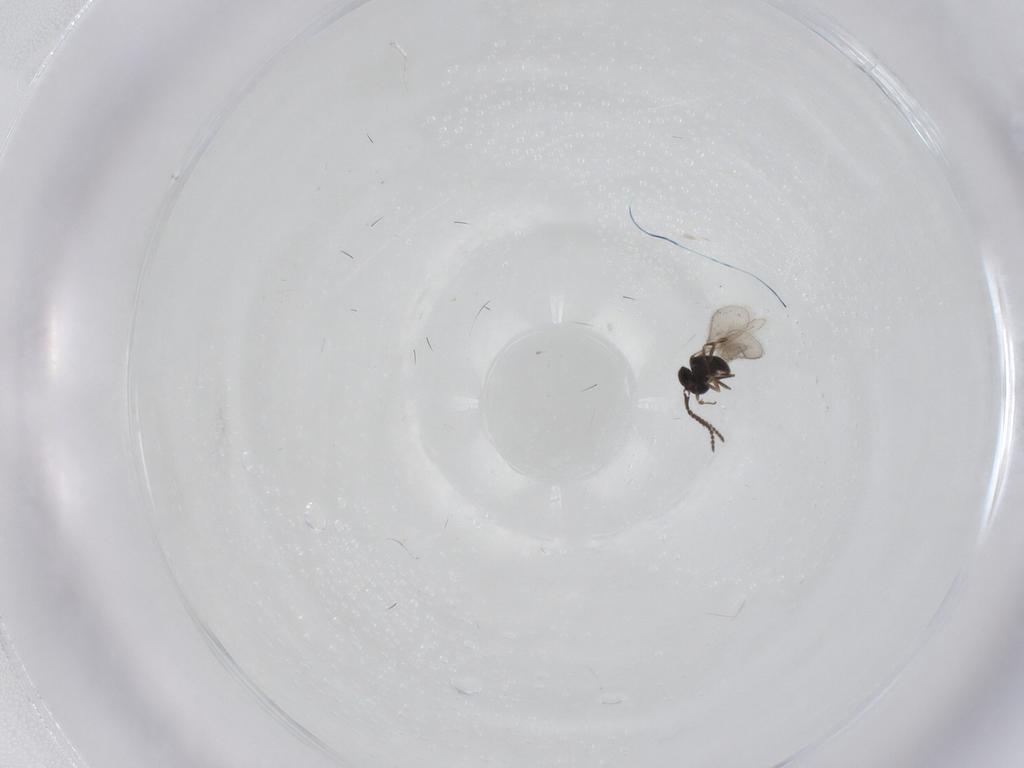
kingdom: Animalia
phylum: Arthropoda
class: Insecta
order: Hymenoptera
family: Scelionidae
